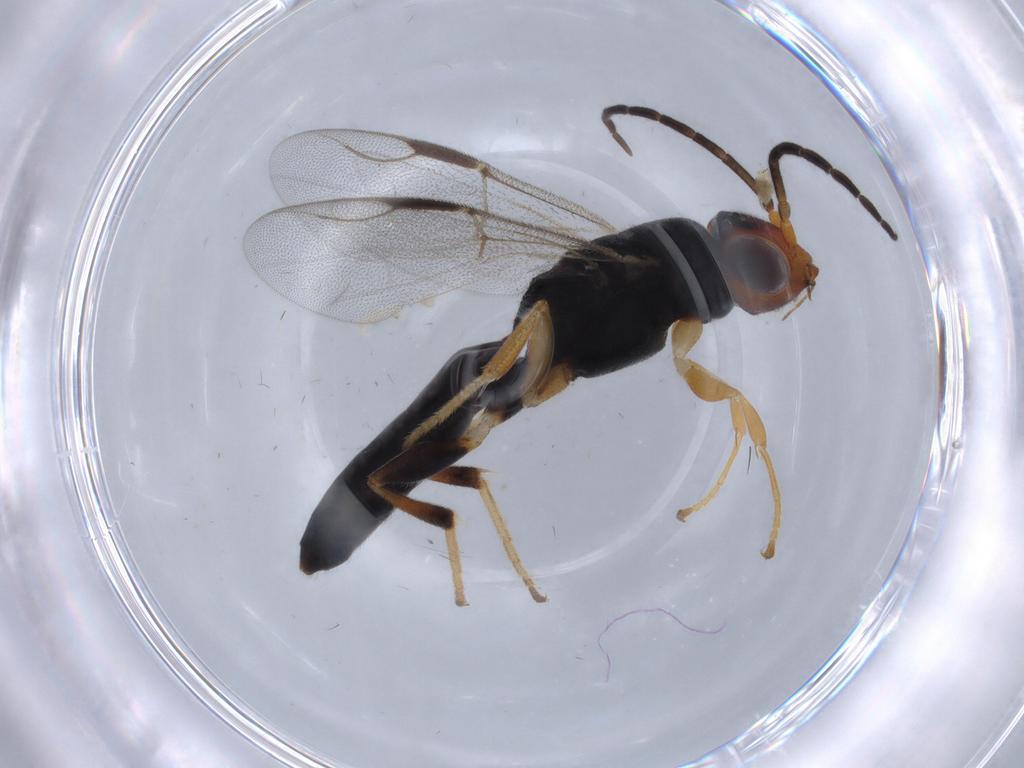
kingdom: Animalia
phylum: Arthropoda
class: Insecta
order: Hymenoptera
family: Dryinidae
